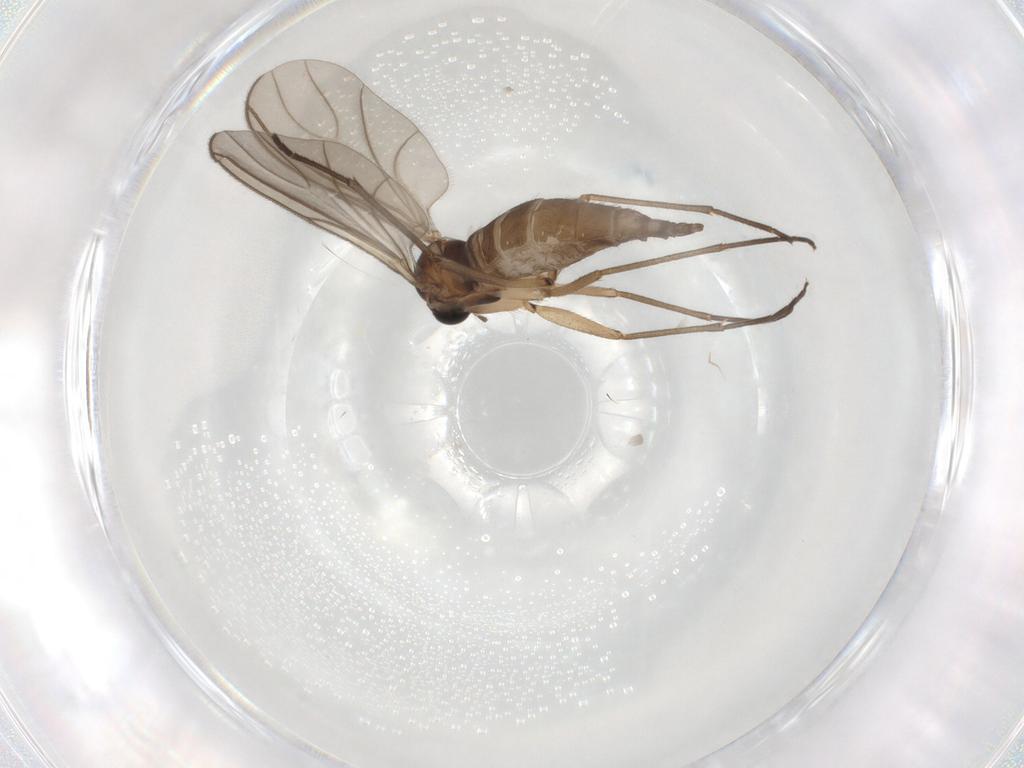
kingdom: Animalia
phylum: Arthropoda
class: Insecta
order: Diptera
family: Sciaridae
